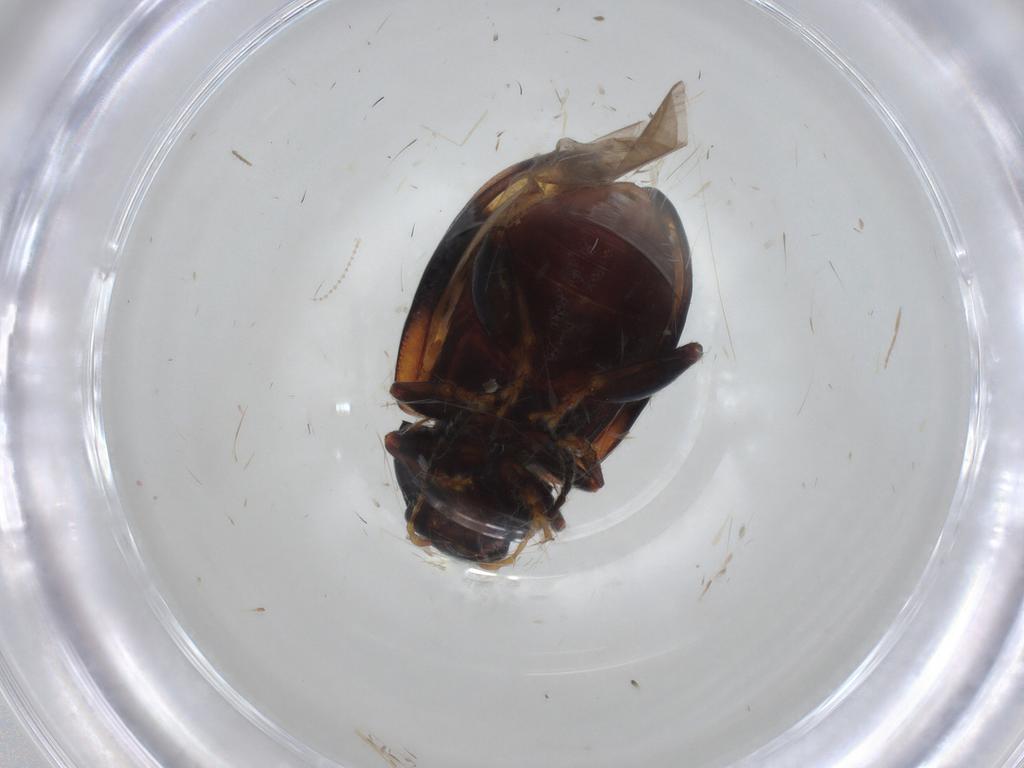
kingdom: Animalia
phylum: Arthropoda
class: Insecta
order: Coleoptera
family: Chrysomelidae
